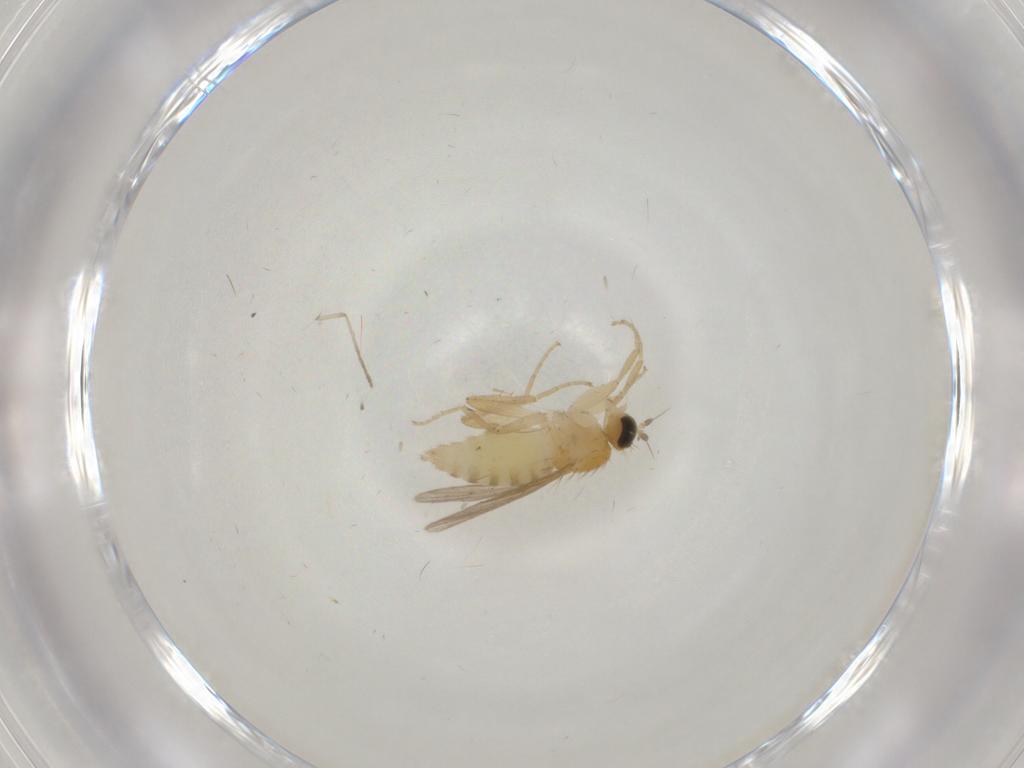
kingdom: Animalia
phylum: Arthropoda
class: Insecta
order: Diptera
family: Hybotidae
